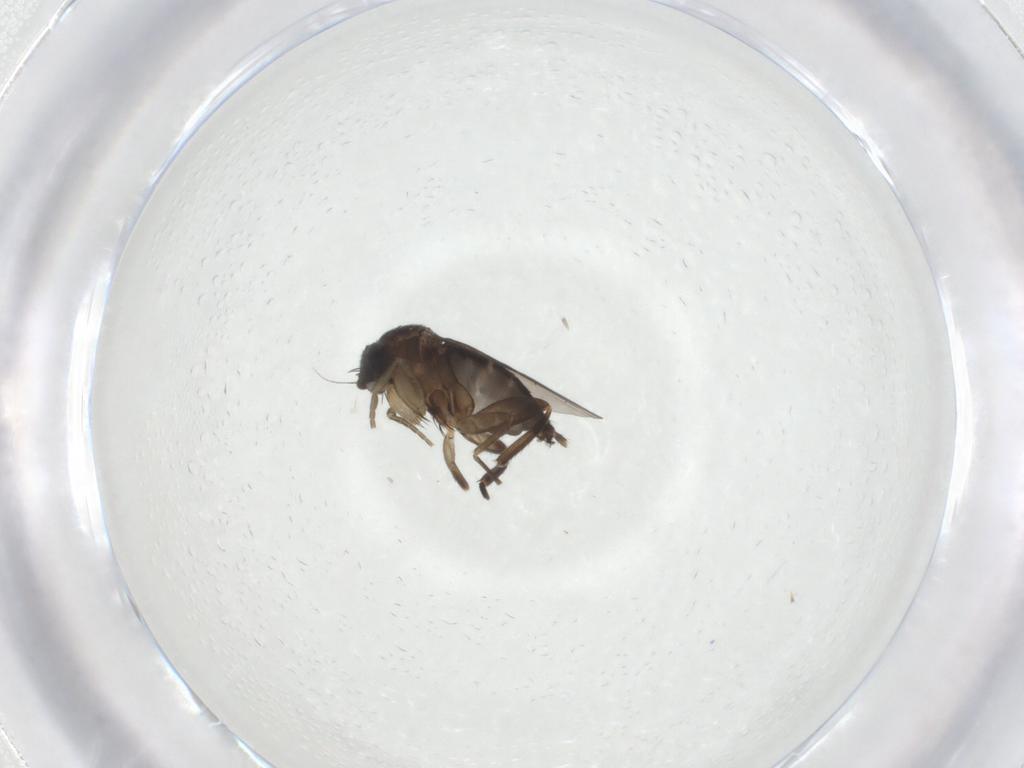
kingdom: Animalia
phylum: Arthropoda
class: Insecta
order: Diptera
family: Phoridae
